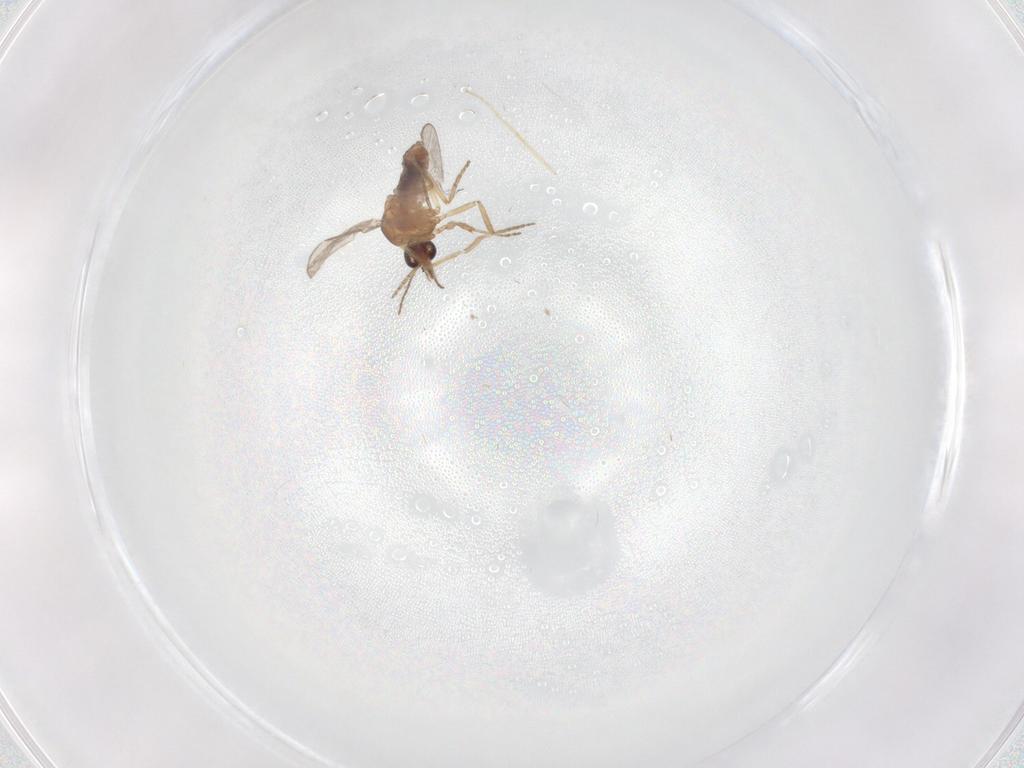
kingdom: Animalia
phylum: Arthropoda
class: Insecta
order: Diptera
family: Sciaridae
